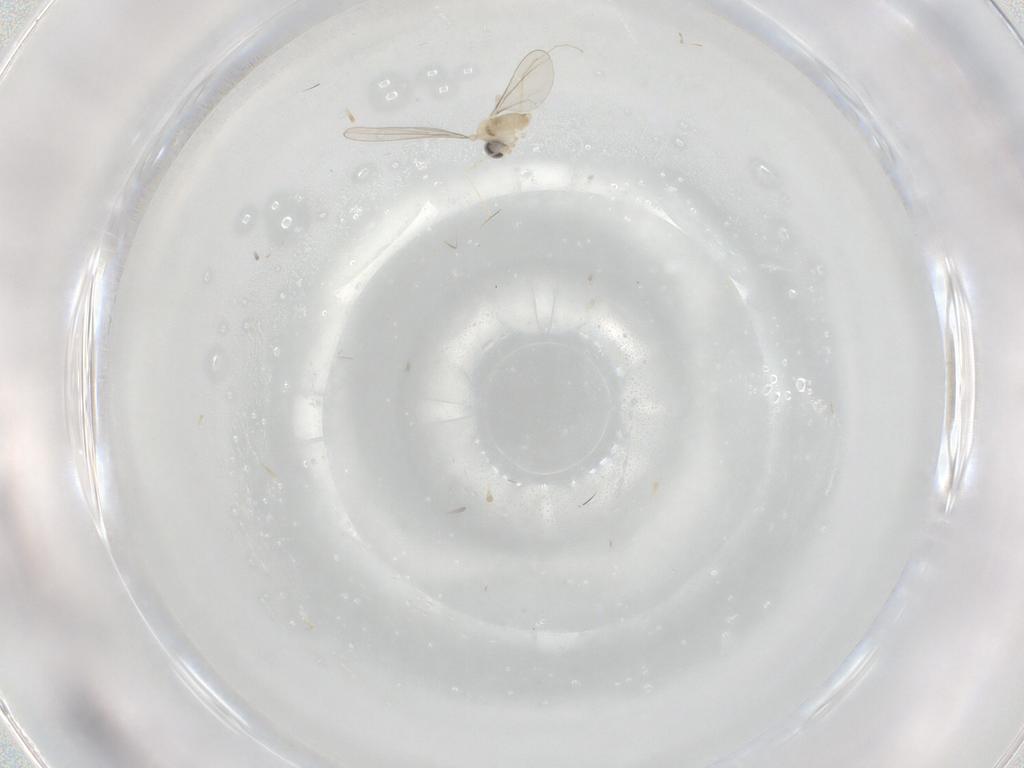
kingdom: Animalia
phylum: Arthropoda
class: Insecta
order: Diptera
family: Cecidomyiidae
